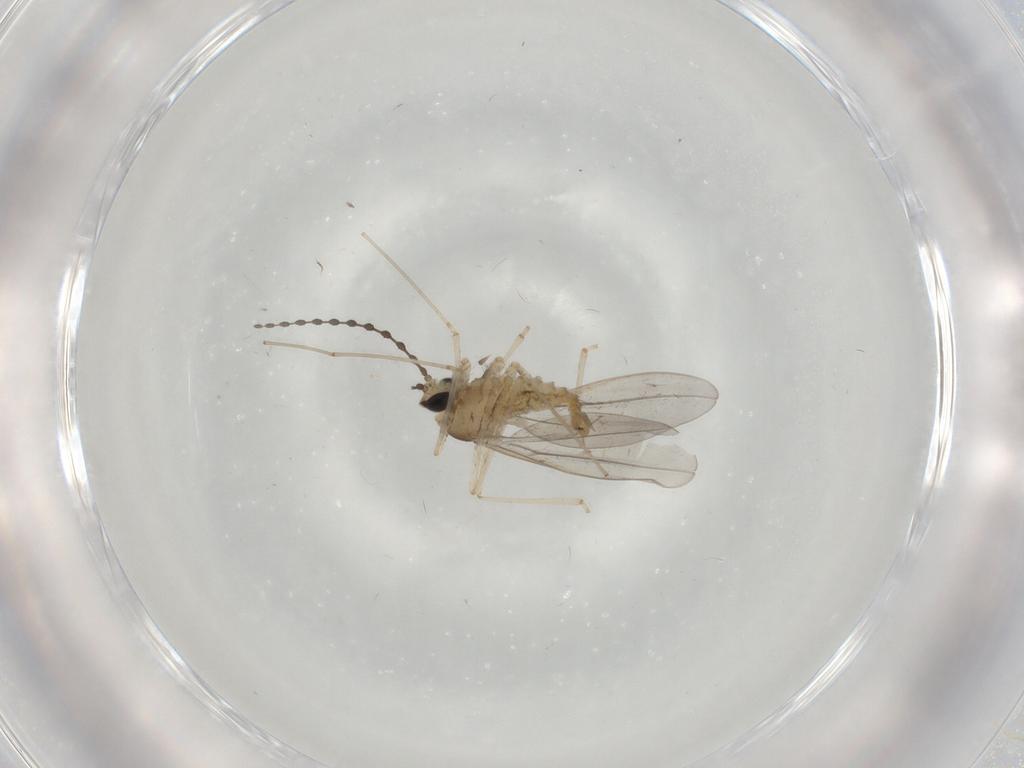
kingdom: Animalia
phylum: Arthropoda
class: Insecta
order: Diptera
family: Cecidomyiidae
